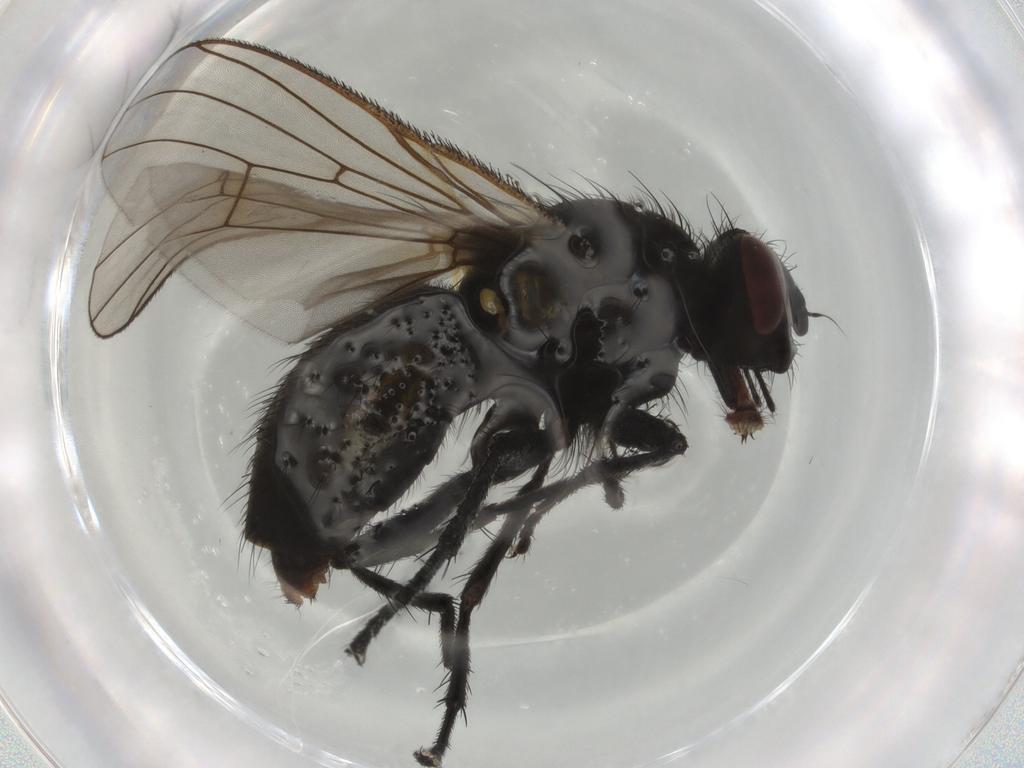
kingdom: Animalia
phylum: Arthropoda
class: Insecta
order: Diptera
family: Muscidae
